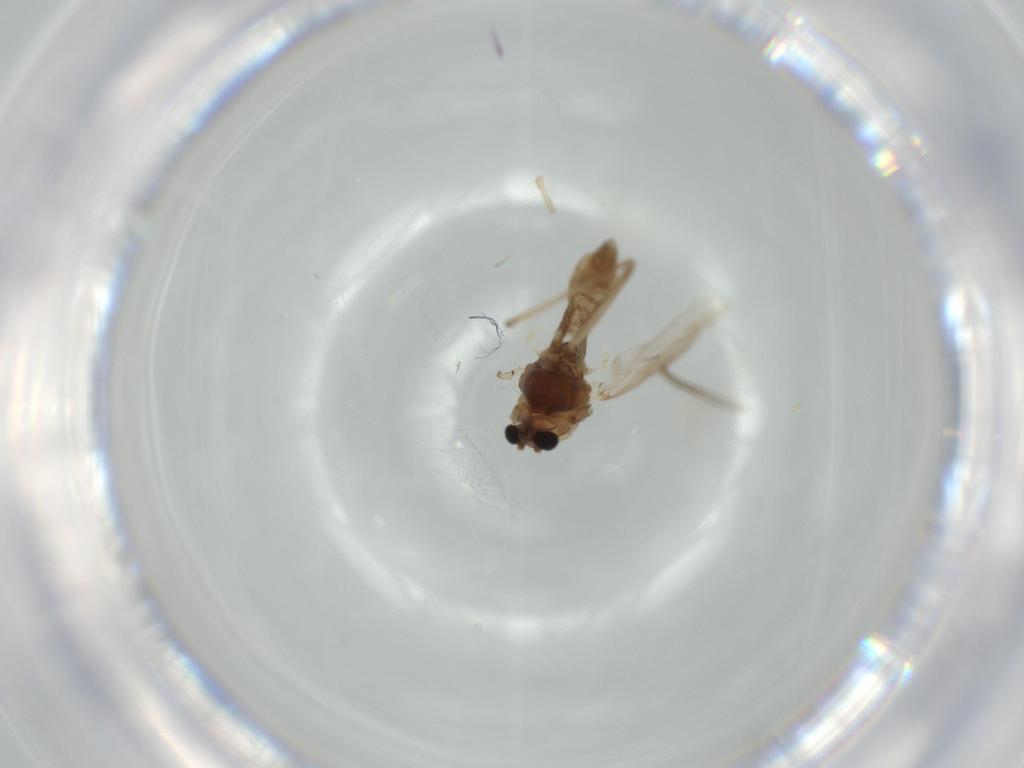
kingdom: Animalia
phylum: Arthropoda
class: Insecta
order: Diptera
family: Chironomidae
